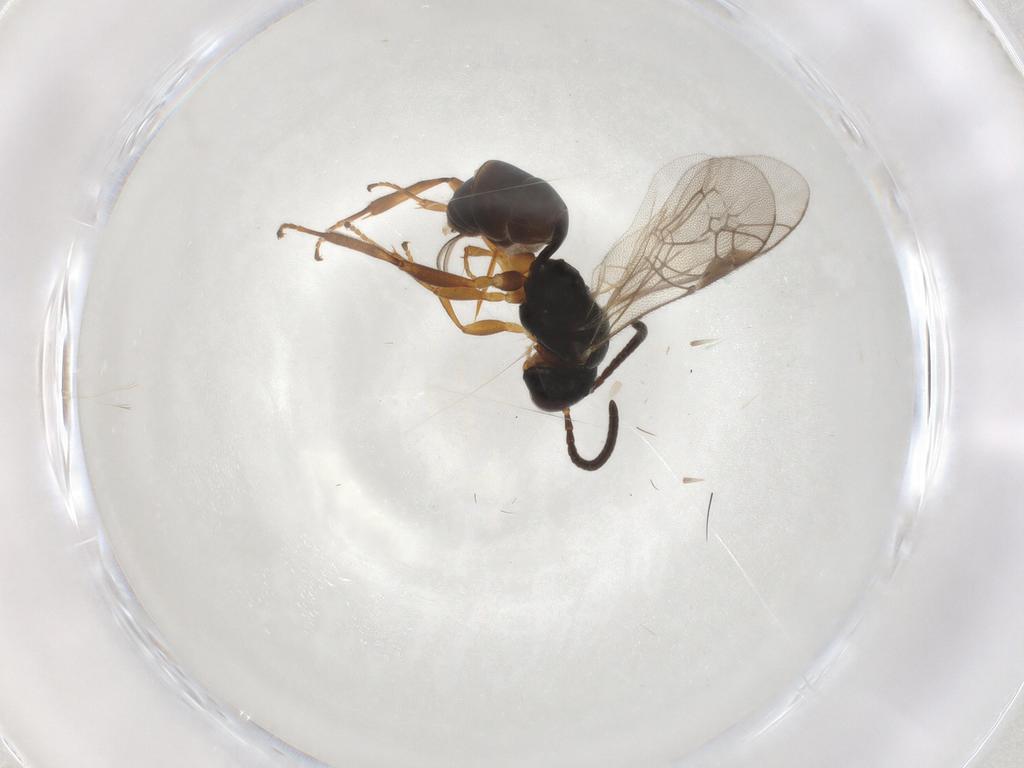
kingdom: Animalia
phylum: Arthropoda
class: Insecta
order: Hymenoptera
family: Ichneumonidae
